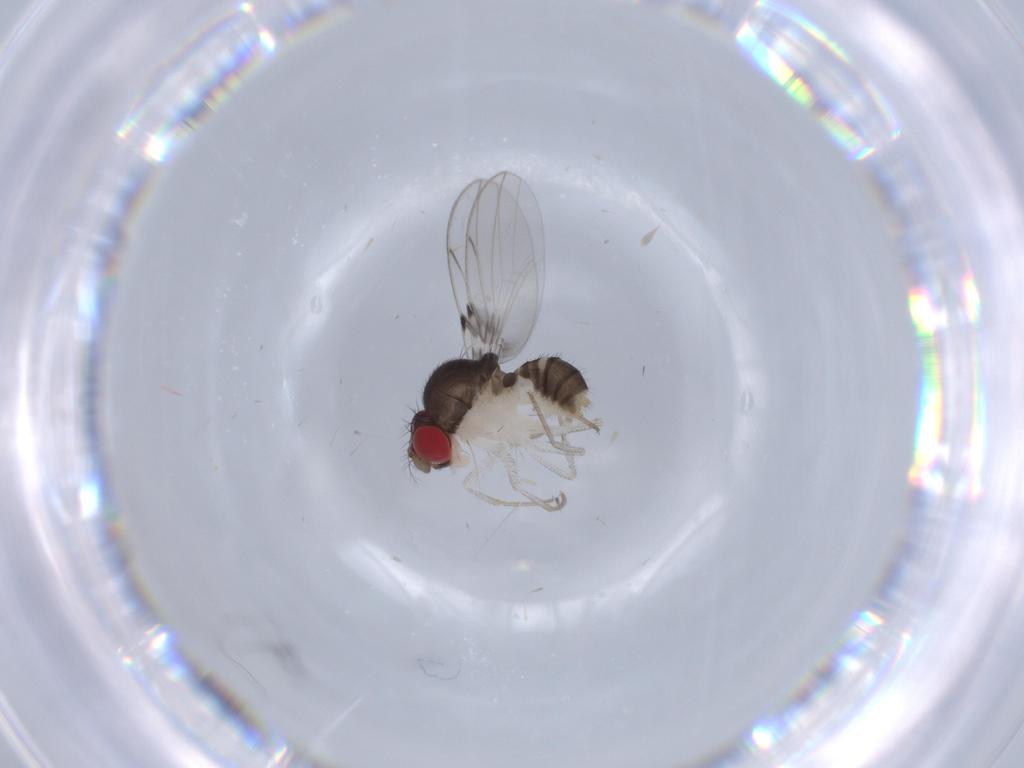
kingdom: Animalia
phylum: Arthropoda
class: Insecta
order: Diptera
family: Drosophilidae
